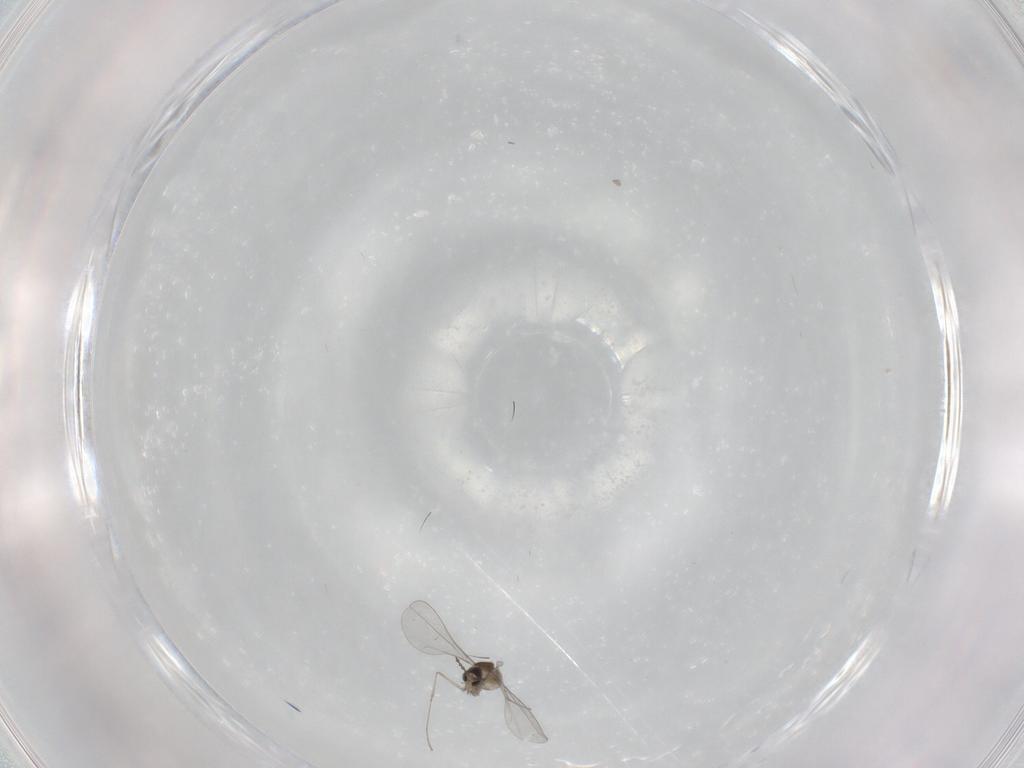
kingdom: Animalia
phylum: Arthropoda
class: Insecta
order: Diptera
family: Cecidomyiidae
